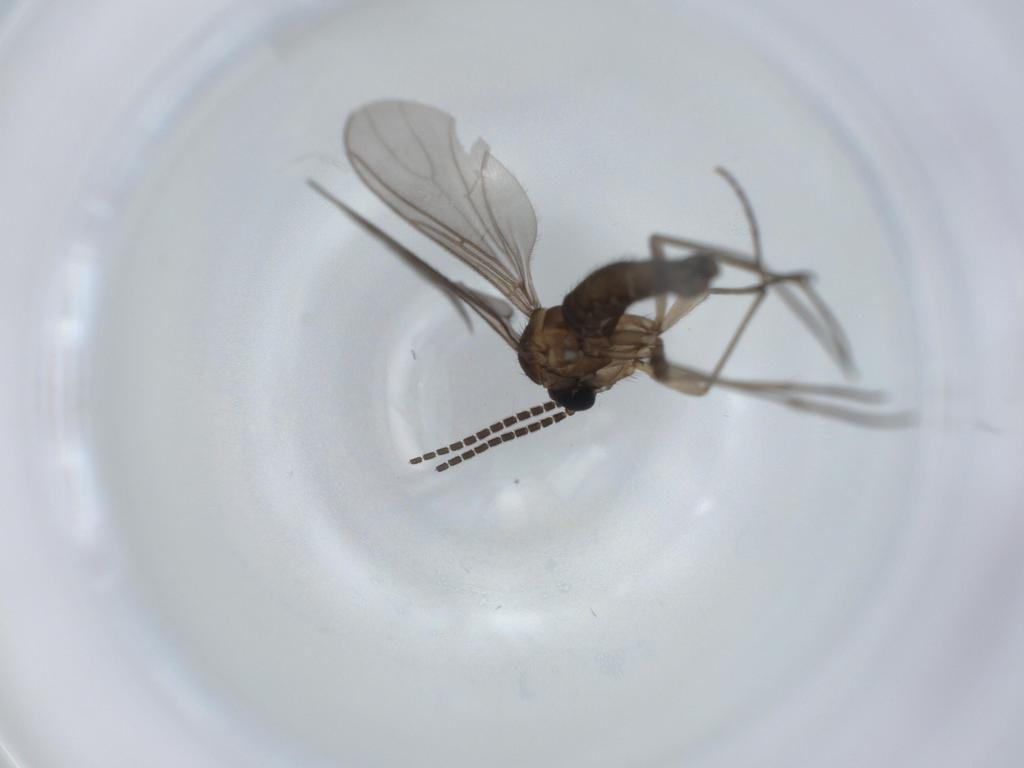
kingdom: Animalia
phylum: Arthropoda
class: Insecta
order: Diptera
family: Sciaridae
